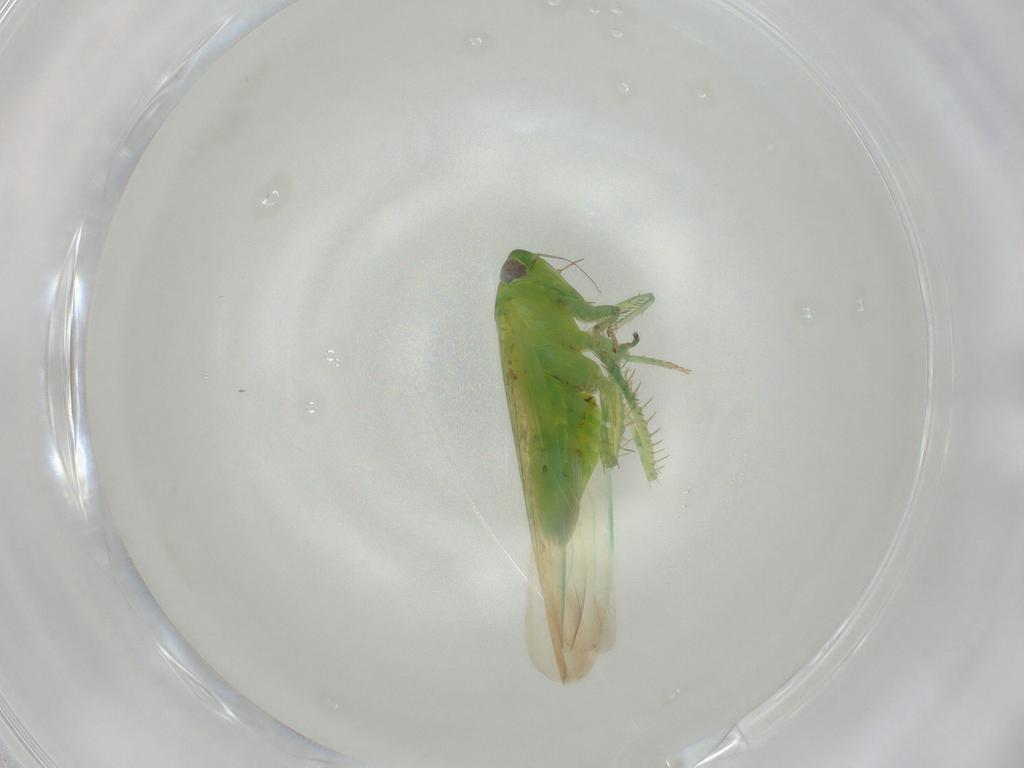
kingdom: Animalia
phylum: Arthropoda
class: Insecta
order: Hemiptera
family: Cicadellidae
